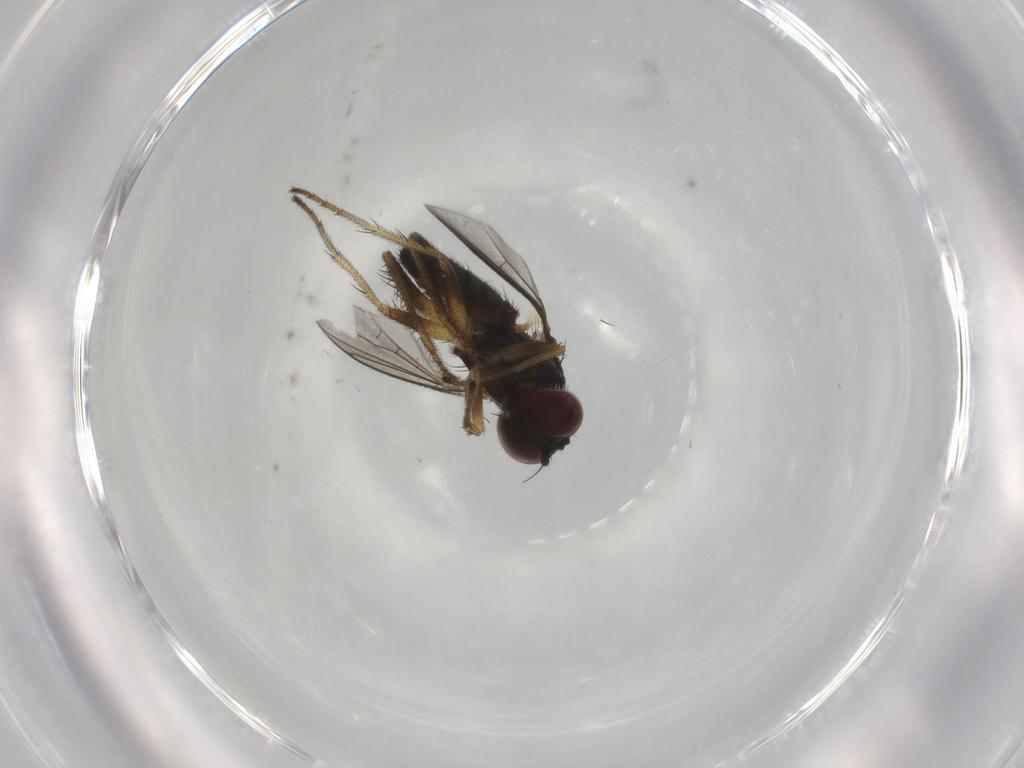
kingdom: Animalia
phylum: Arthropoda
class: Insecta
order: Diptera
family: Dolichopodidae
